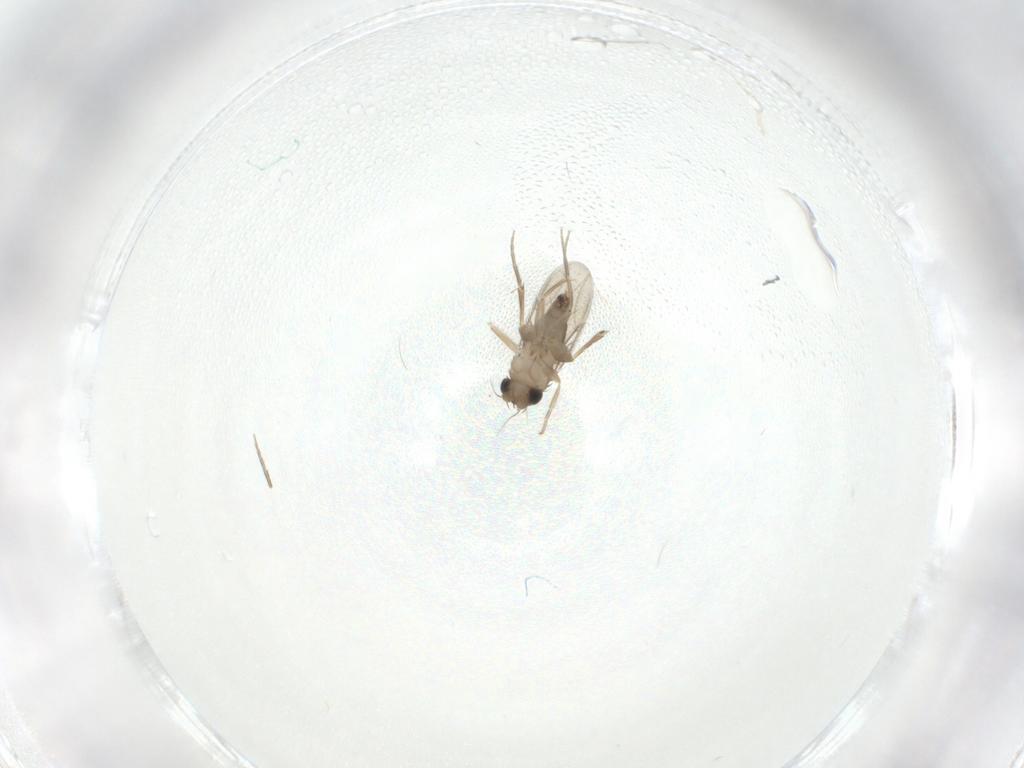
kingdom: Animalia
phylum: Arthropoda
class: Insecta
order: Diptera
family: Phoridae
